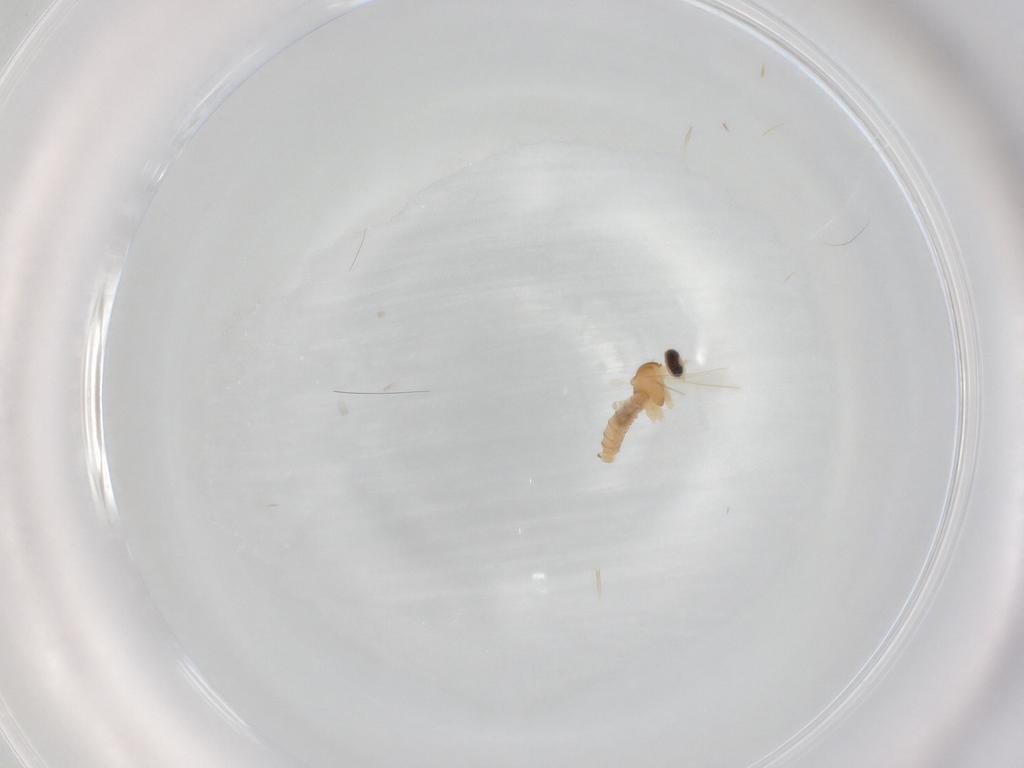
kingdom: Animalia
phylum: Arthropoda
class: Insecta
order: Diptera
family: Cecidomyiidae
